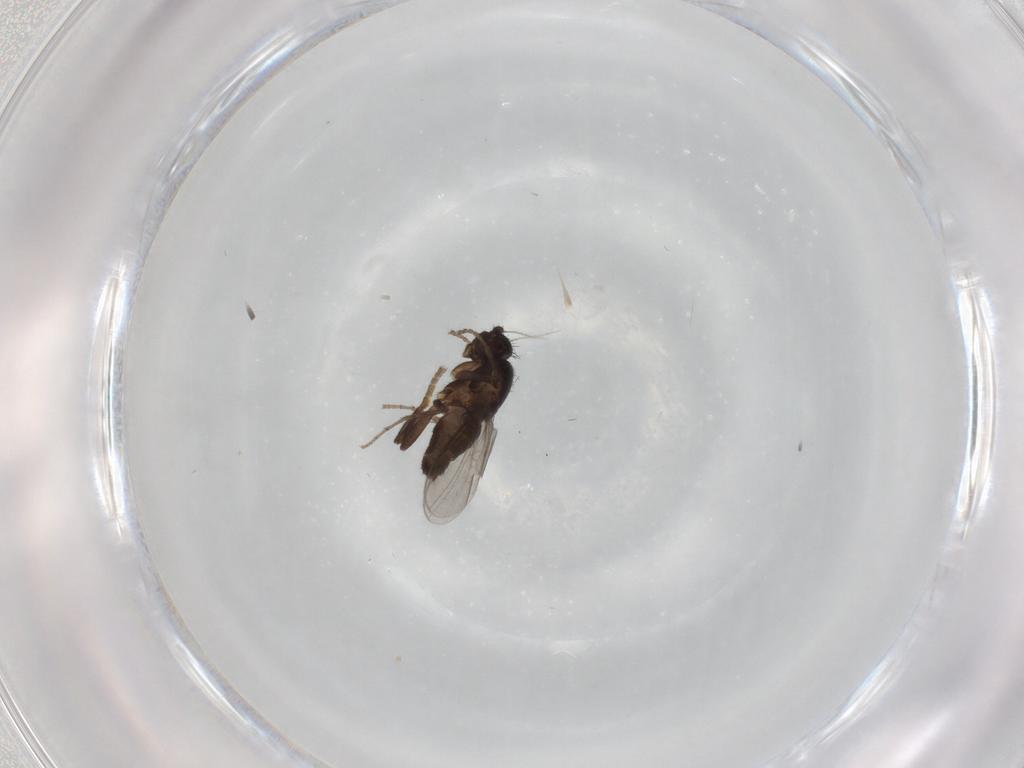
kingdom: Animalia
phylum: Arthropoda
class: Insecta
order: Diptera
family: Sphaeroceridae
